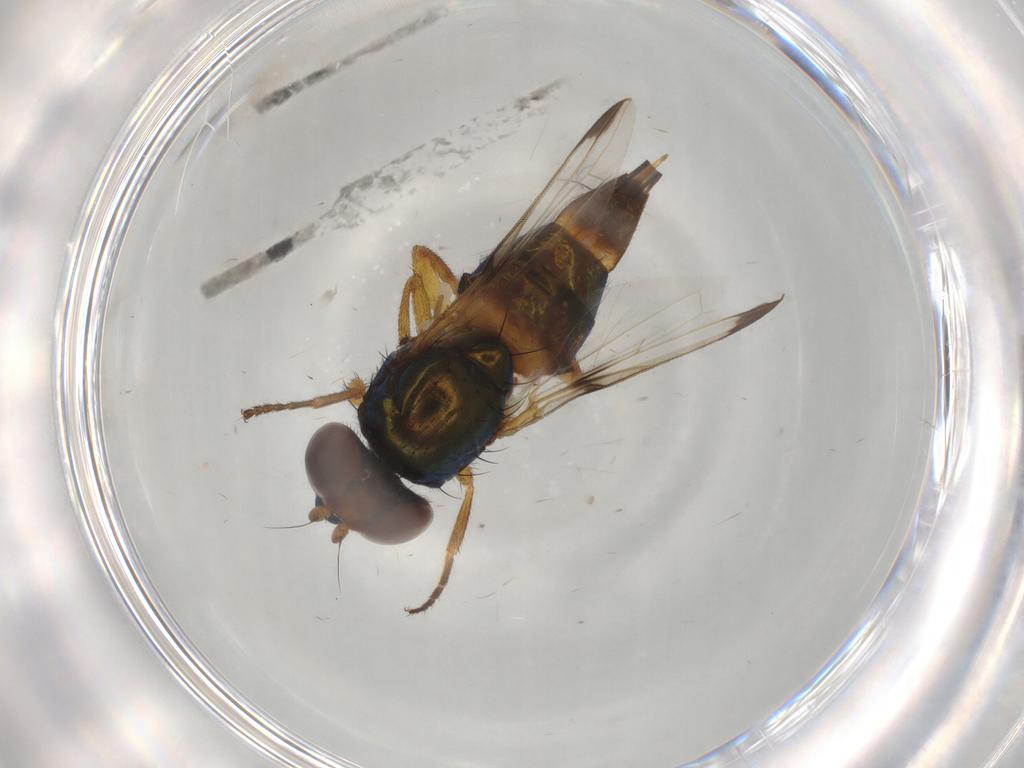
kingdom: Animalia
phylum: Arthropoda
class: Insecta
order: Diptera
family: Ulidiidae
